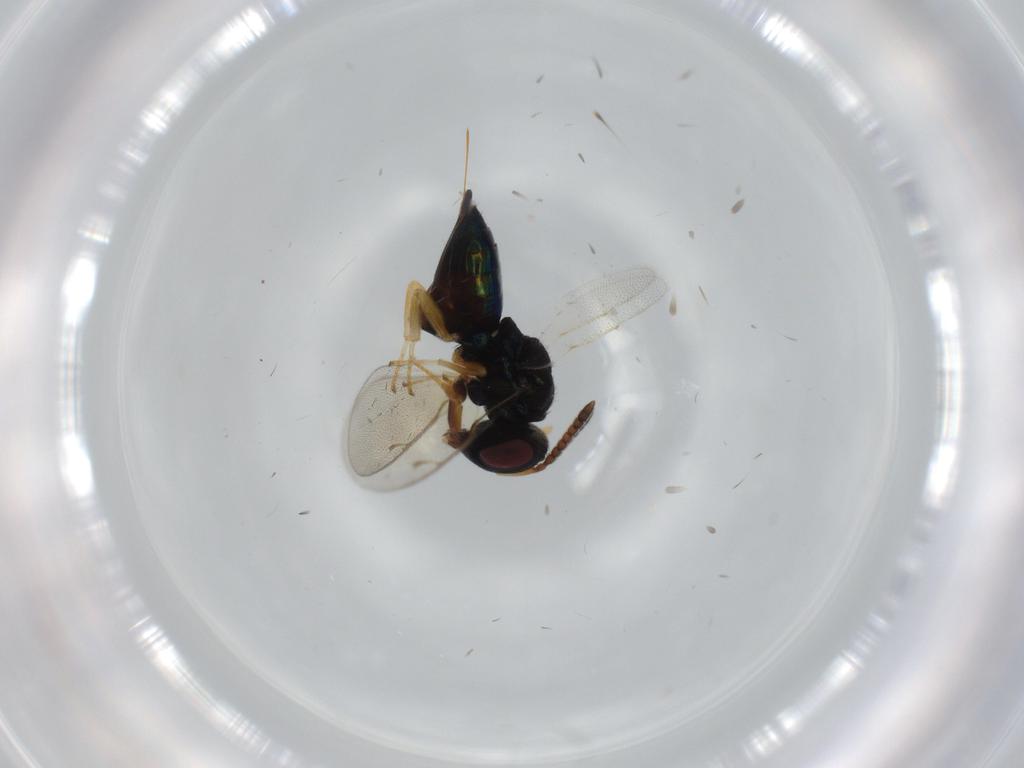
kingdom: Animalia
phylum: Arthropoda
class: Insecta
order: Hymenoptera
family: Pteromalidae
